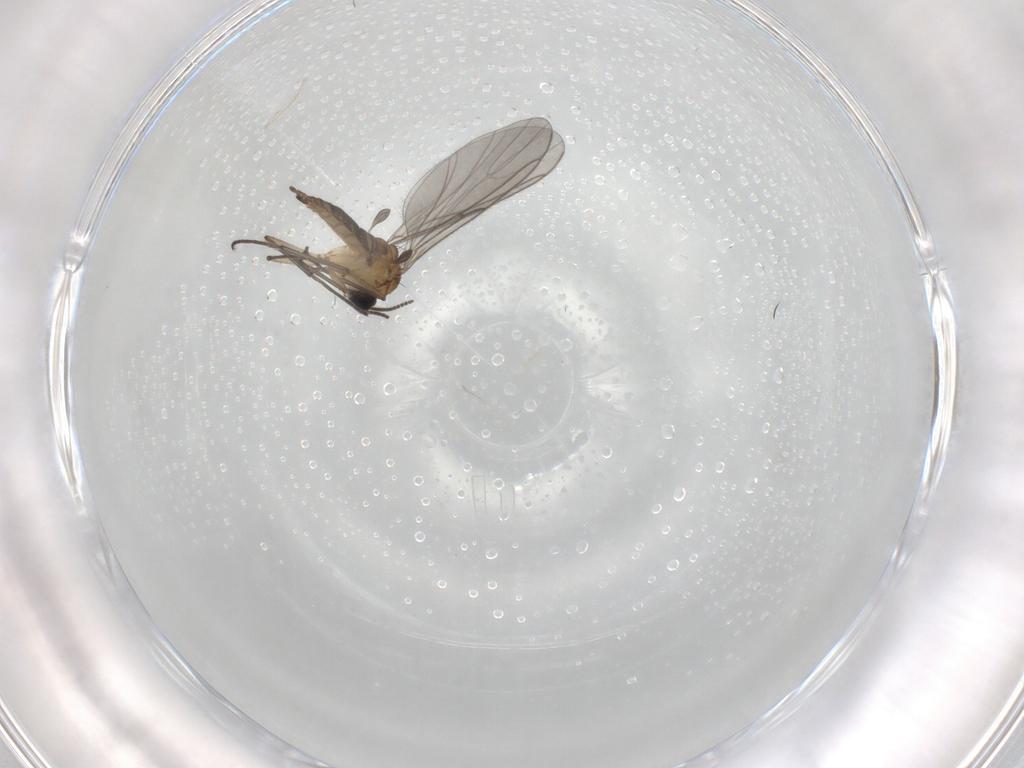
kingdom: Animalia
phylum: Arthropoda
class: Insecta
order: Diptera
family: Sciaridae
